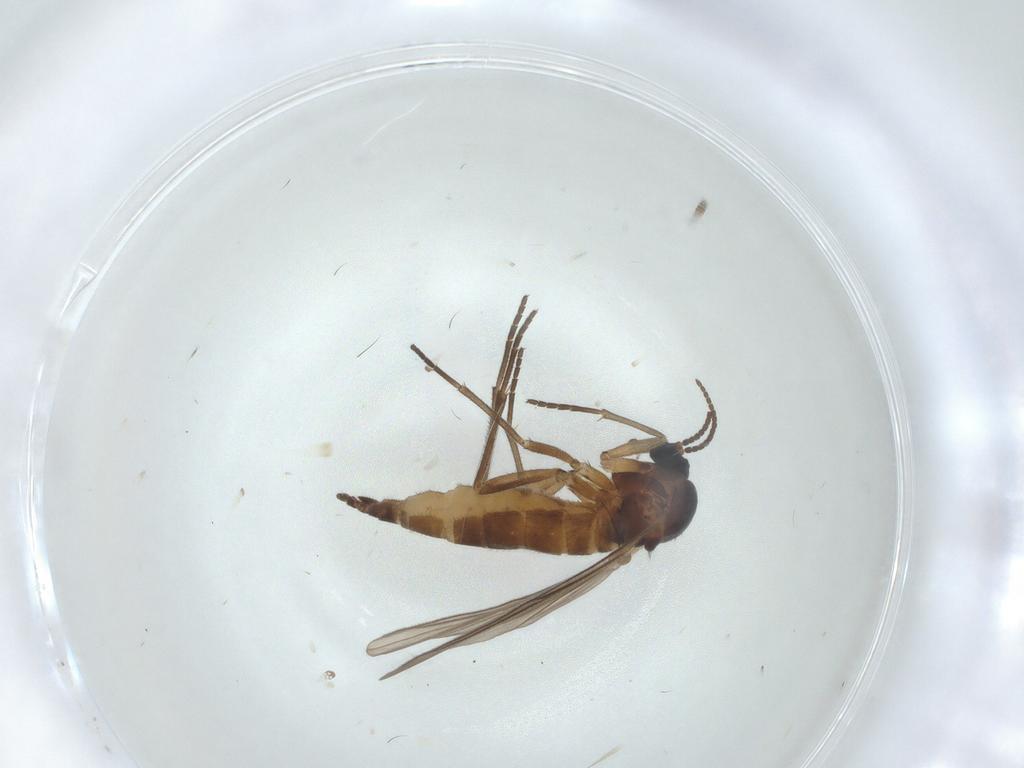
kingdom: Animalia
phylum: Arthropoda
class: Insecta
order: Diptera
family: Sciaridae
